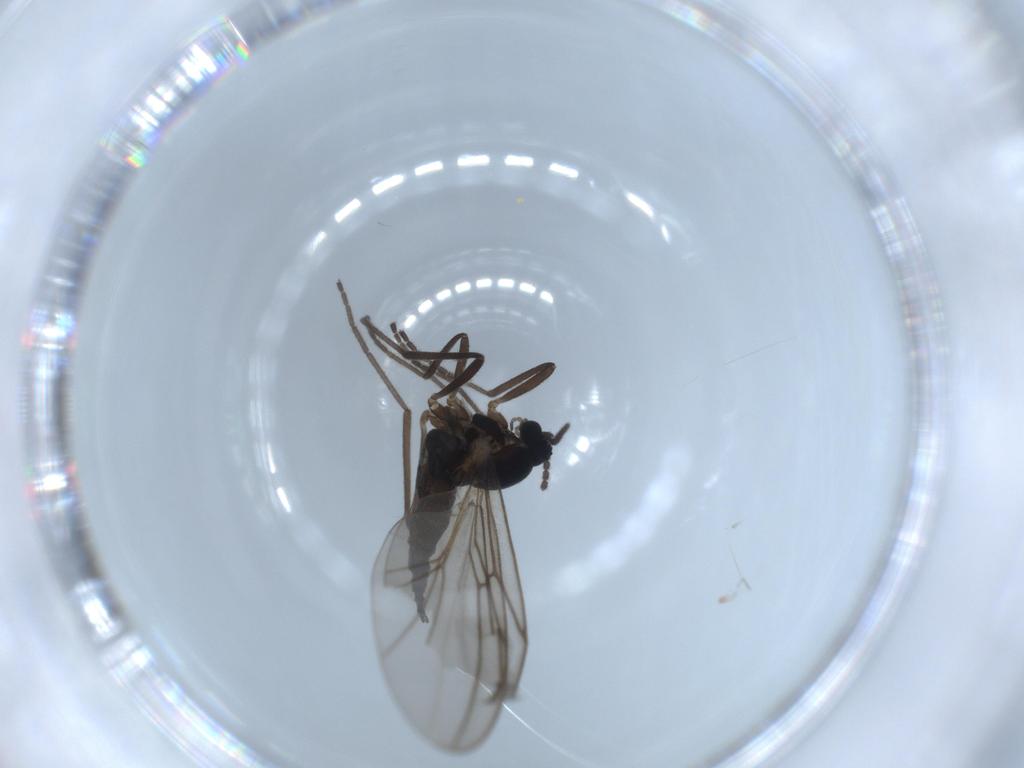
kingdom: Animalia
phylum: Arthropoda
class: Insecta
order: Diptera
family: Cecidomyiidae
